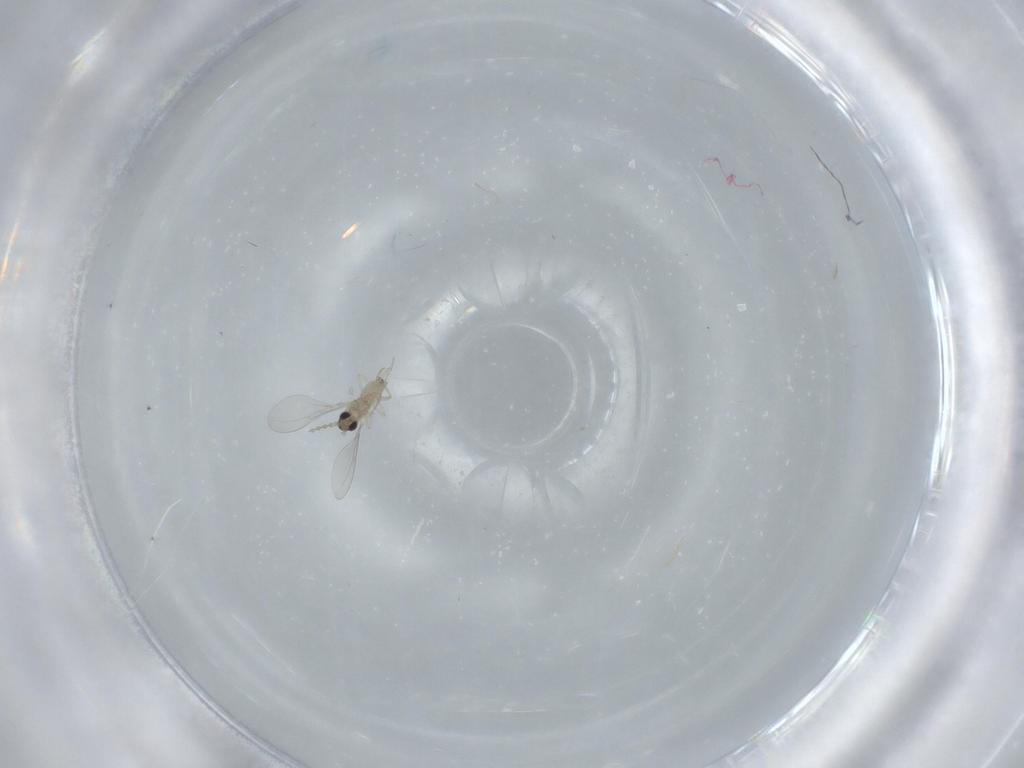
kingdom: Animalia
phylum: Arthropoda
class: Insecta
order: Diptera
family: Cecidomyiidae
